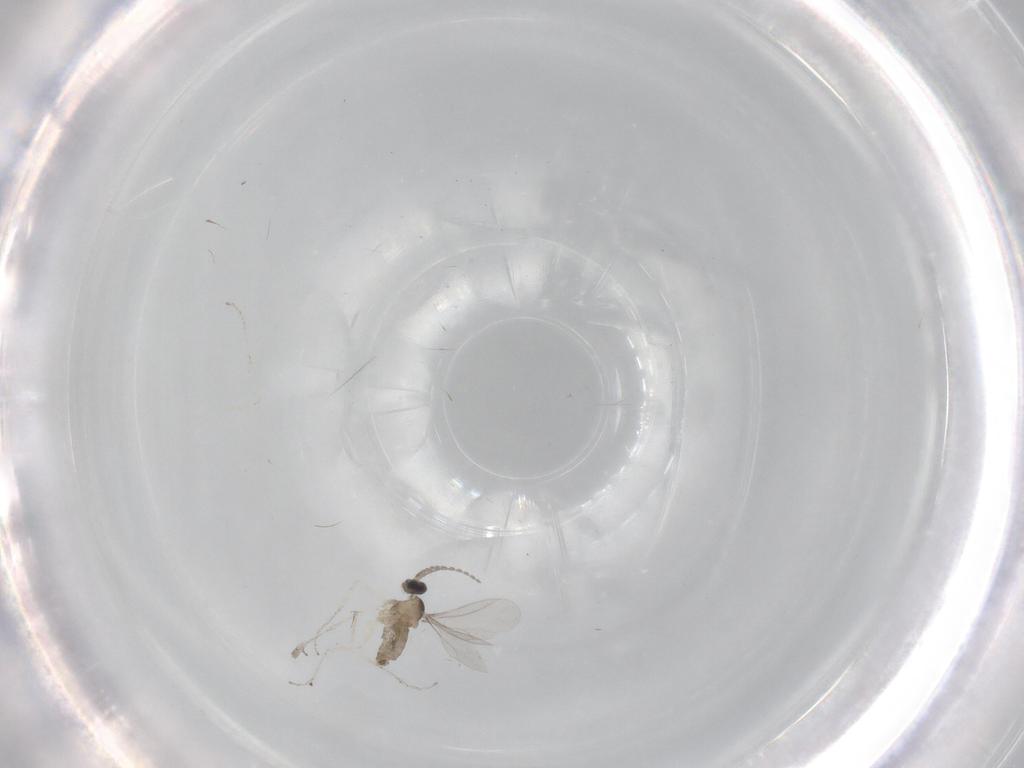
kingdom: Animalia
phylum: Arthropoda
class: Insecta
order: Diptera
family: Cecidomyiidae
